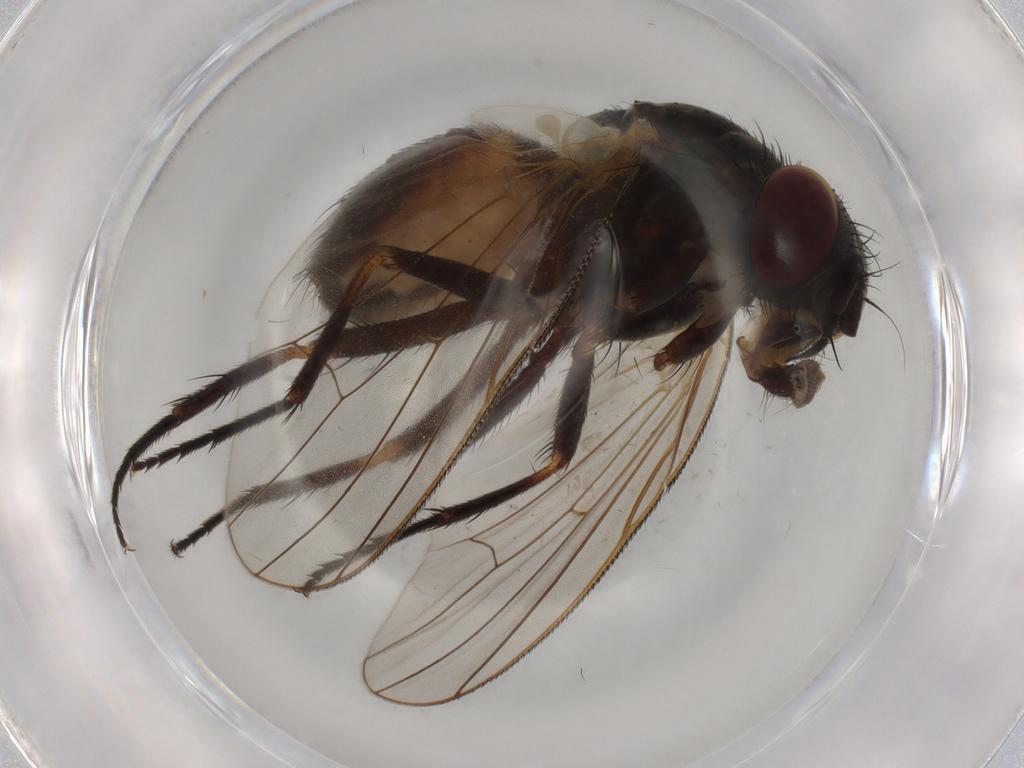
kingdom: Animalia
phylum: Arthropoda
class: Insecta
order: Diptera
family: Fannia
